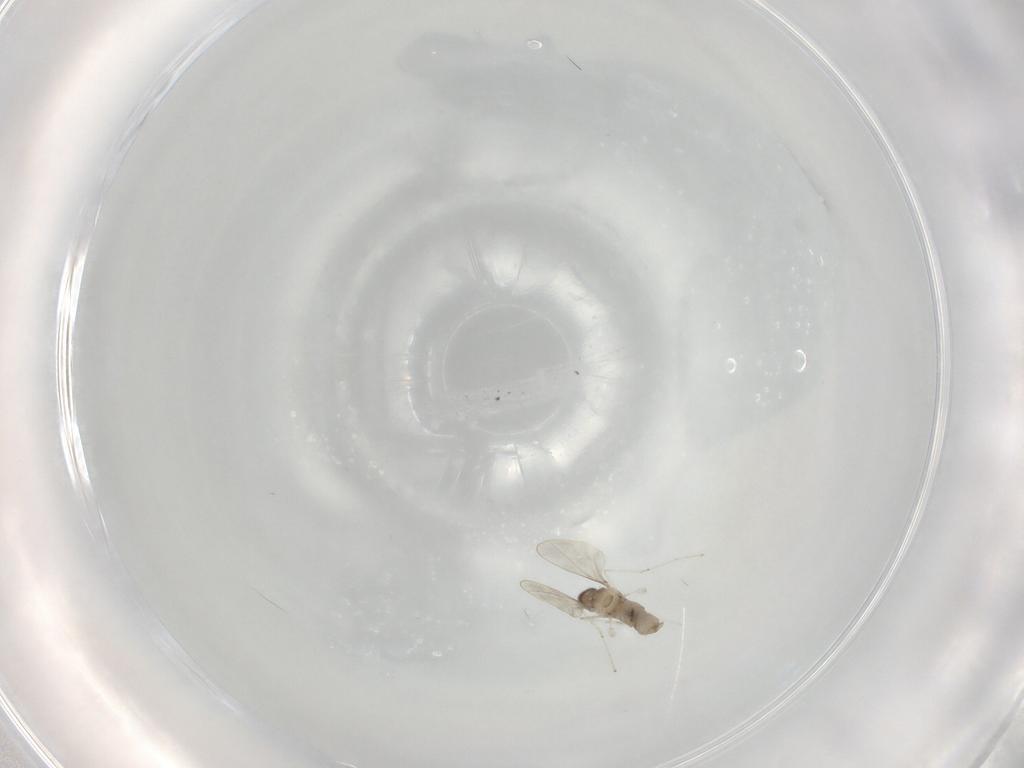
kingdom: Animalia
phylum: Arthropoda
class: Insecta
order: Diptera
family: Cecidomyiidae
